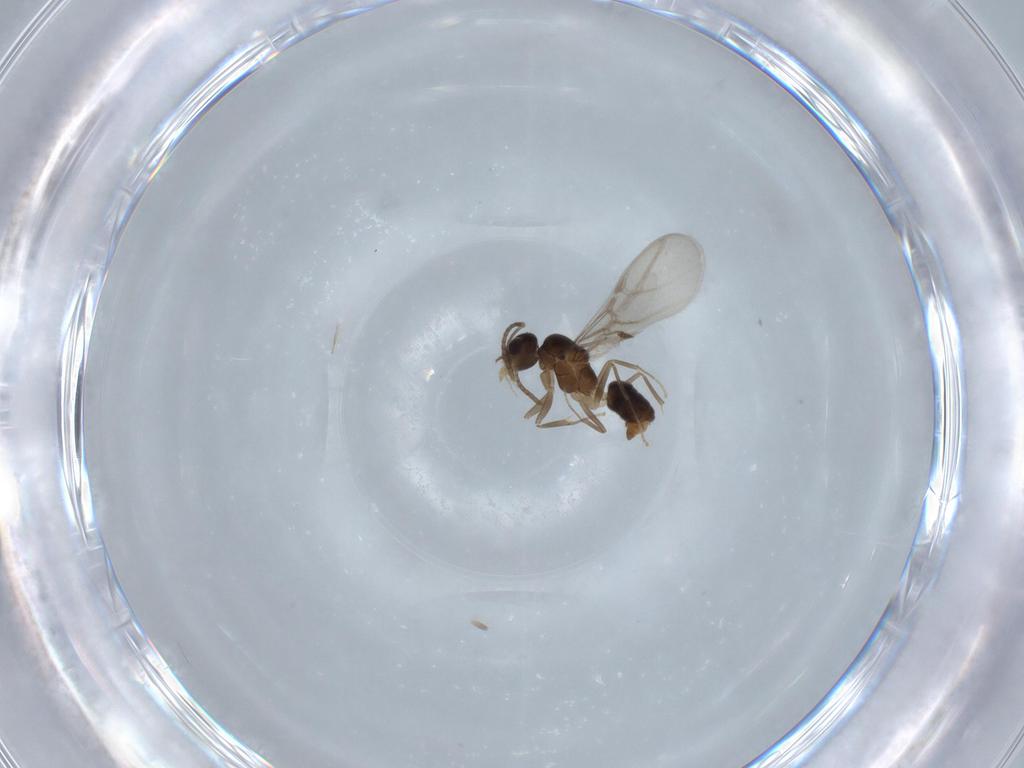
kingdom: Animalia
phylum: Arthropoda
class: Insecta
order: Hymenoptera
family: Formicidae
